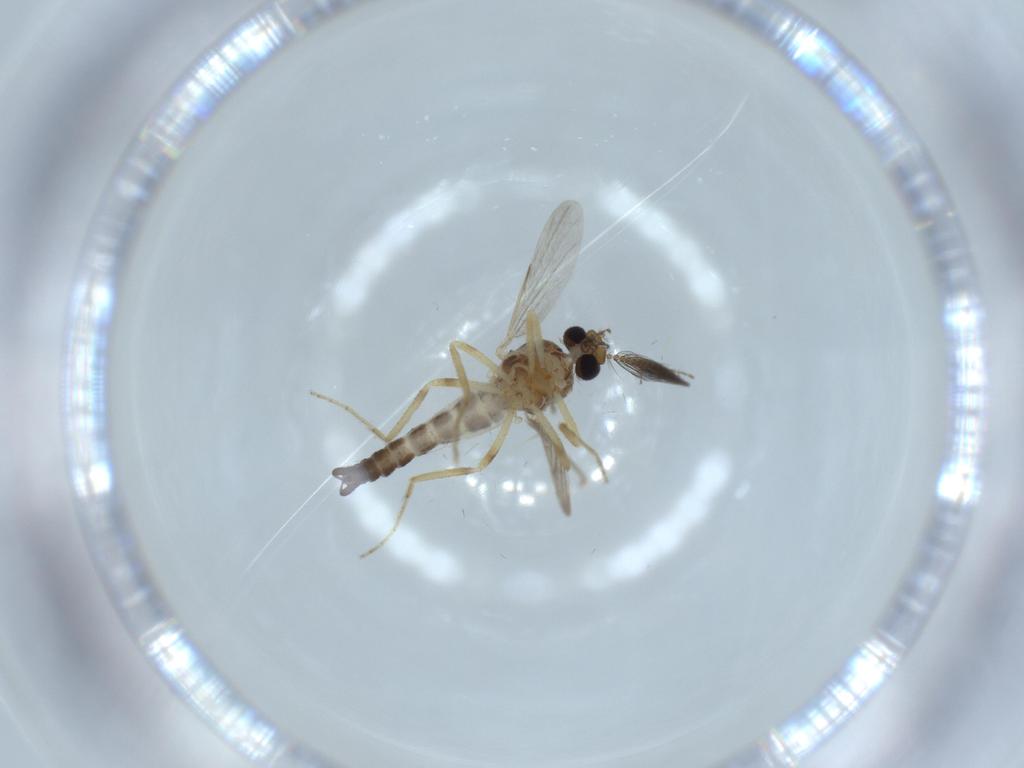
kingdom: Animalia
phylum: Arthropoda
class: Insecta
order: Diptera
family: Ceratopogonidae
